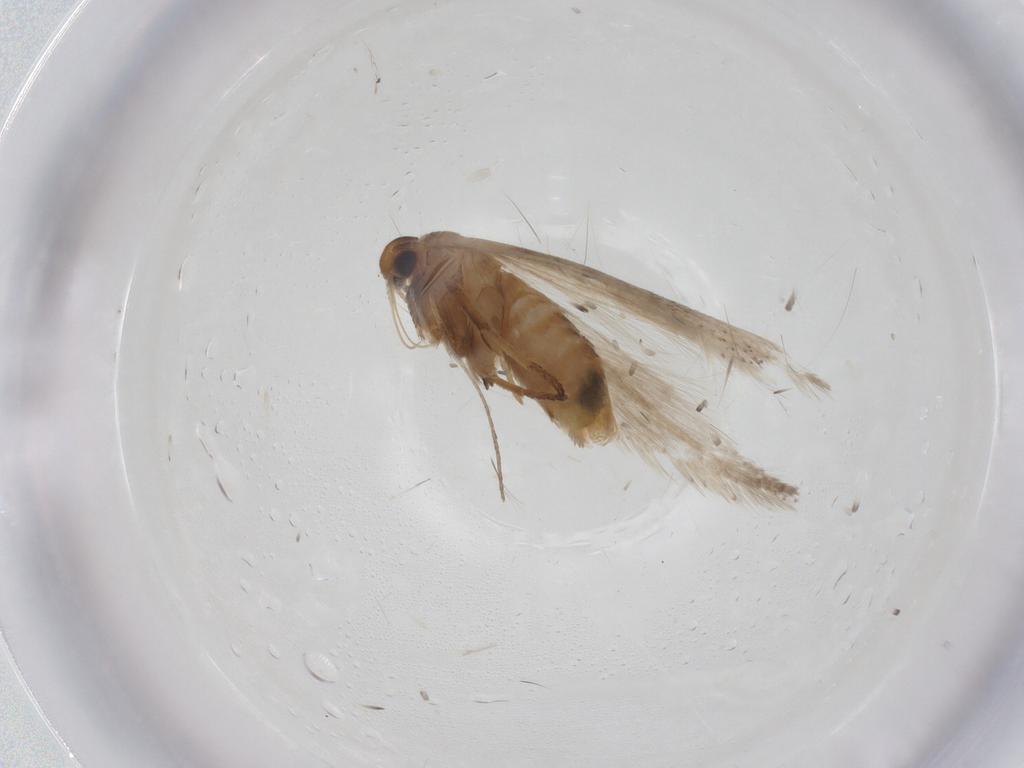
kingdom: Animalia
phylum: Arthropoda
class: Insecta
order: Lepidoptera
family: Gelechiidae
